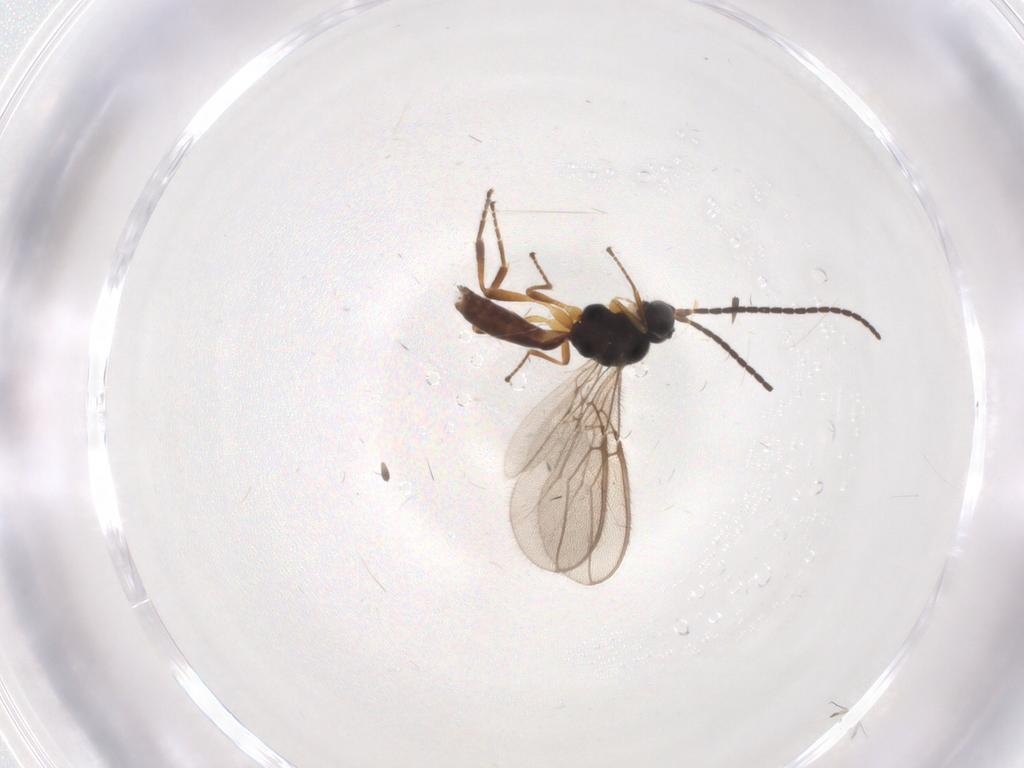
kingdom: Animalia
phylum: Arthropoda
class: Insecta
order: Hymenoptera
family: Braconidae
